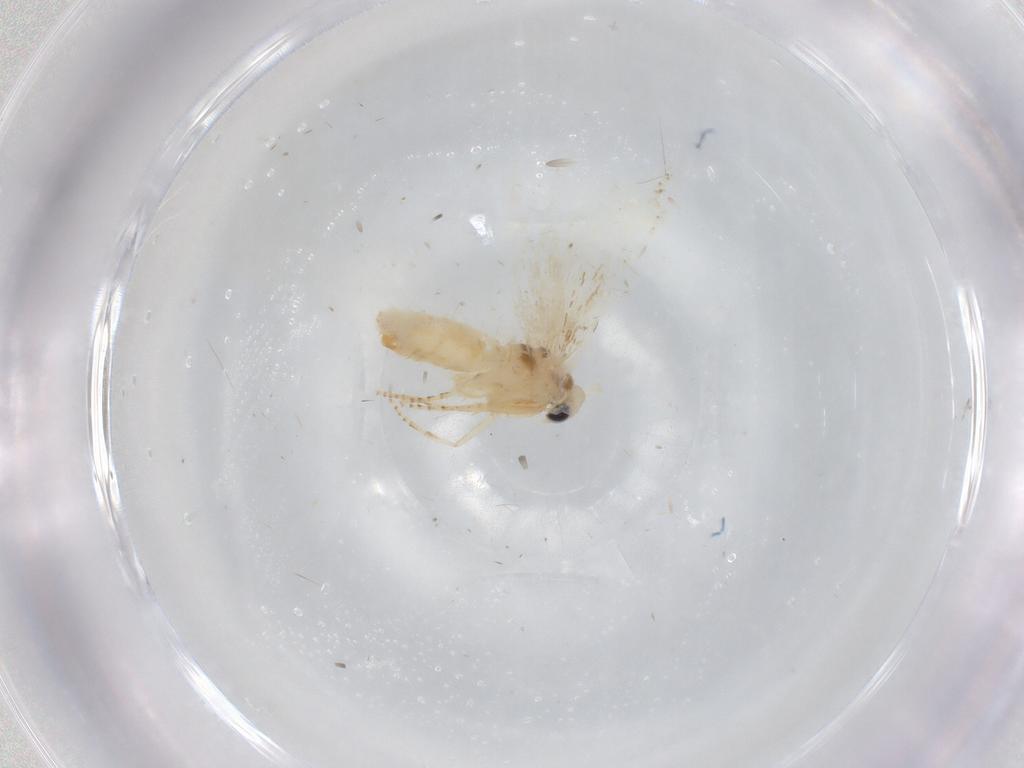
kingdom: Animalia
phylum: Arthropoda
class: Insecta
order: Lepidoptera
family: Bucculatricidae
